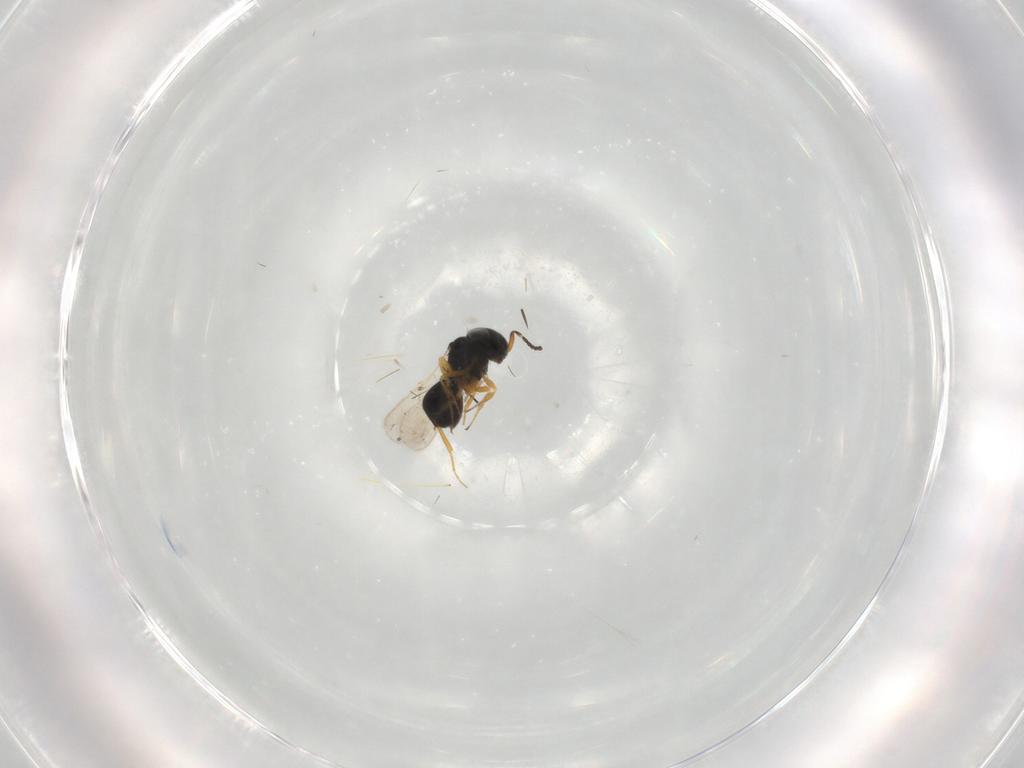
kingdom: Animalia
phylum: Arthropoda
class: Insecta
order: Hymenoptera
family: Scelionidae
